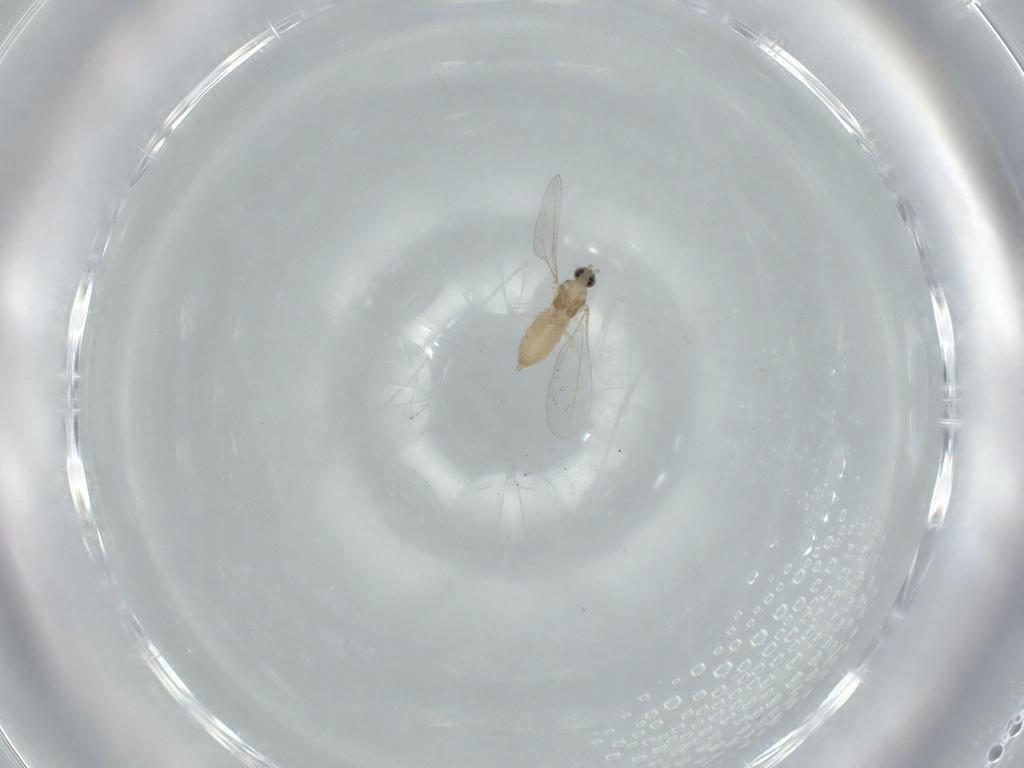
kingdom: Animalia
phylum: Arthropoda
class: Insecta
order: Diptera
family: Cecidomyiidae
